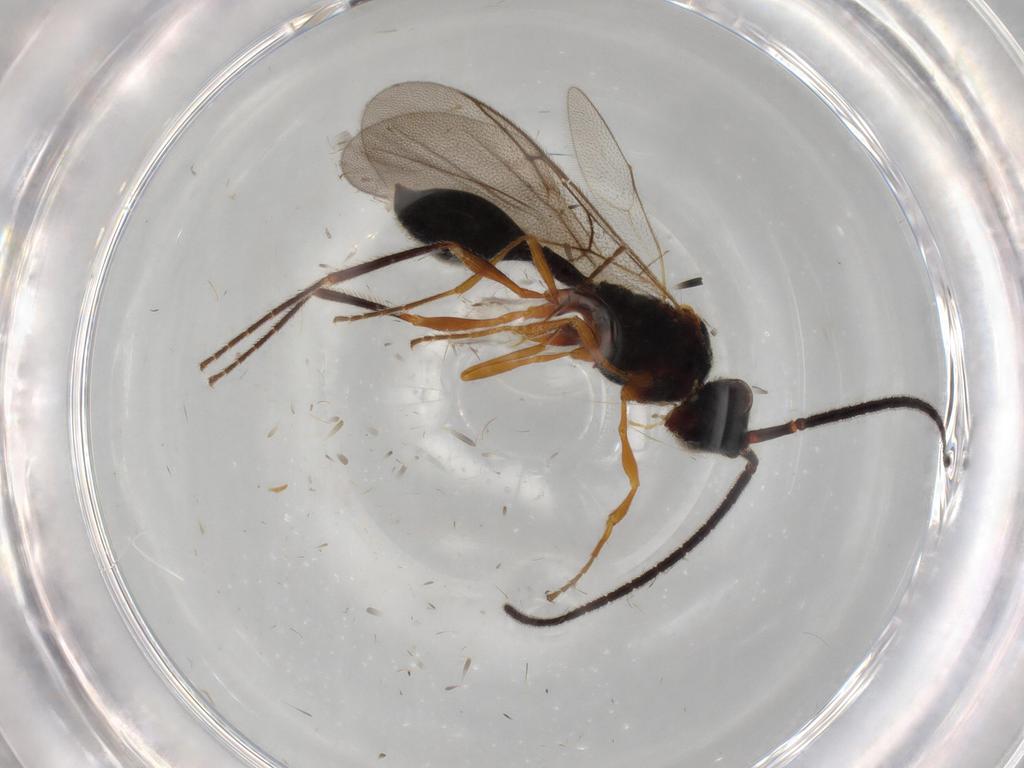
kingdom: Animalia
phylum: Arthropoda
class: Insecta
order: Hymenoptera
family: Diapriidae
